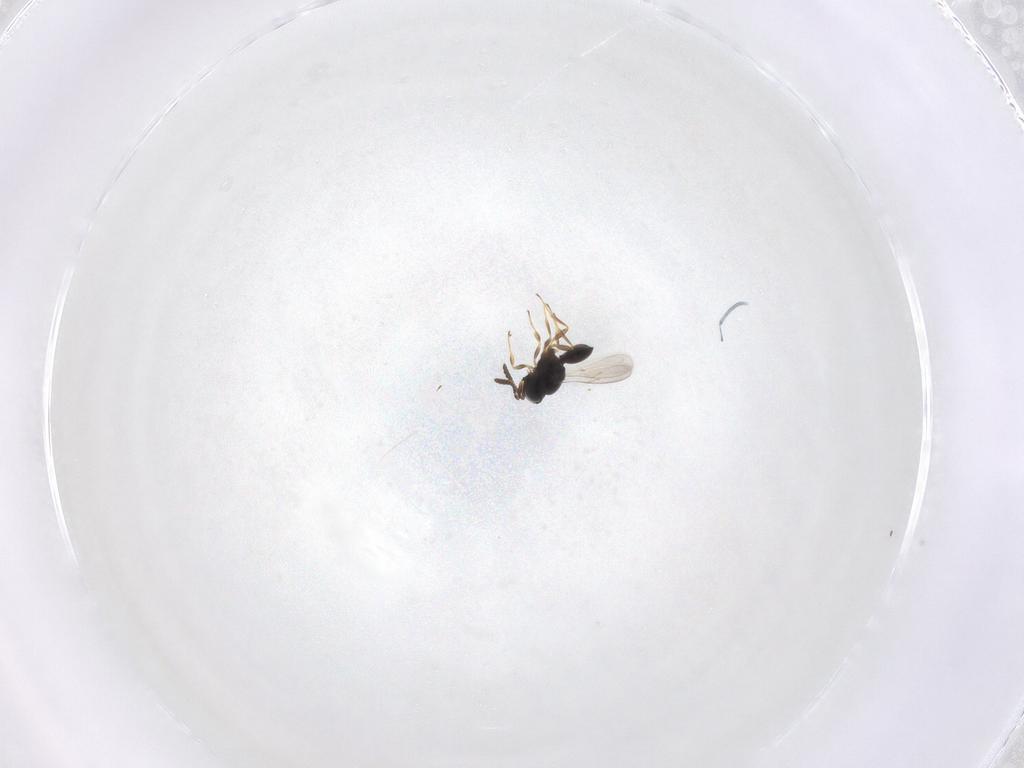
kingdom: Animalia
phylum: Arthropoda
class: Insecta
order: Hymenoptera
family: Scelionidae
